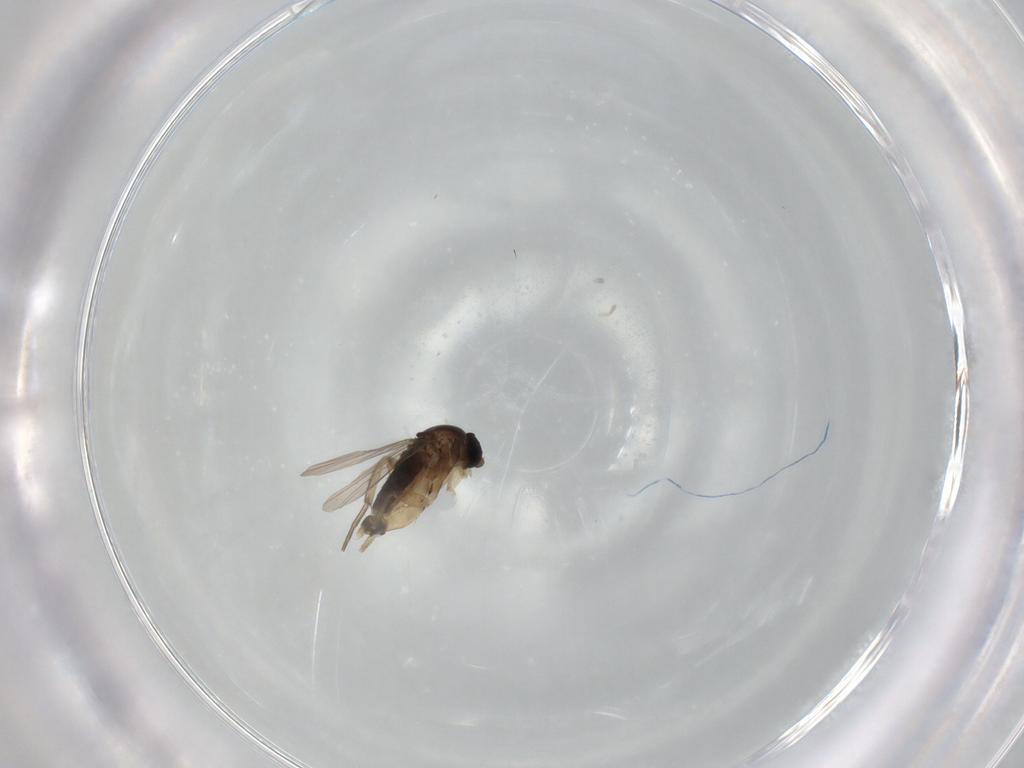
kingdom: Animalia
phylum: Arthropoda
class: Insecta
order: Diptera
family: Phoridae
